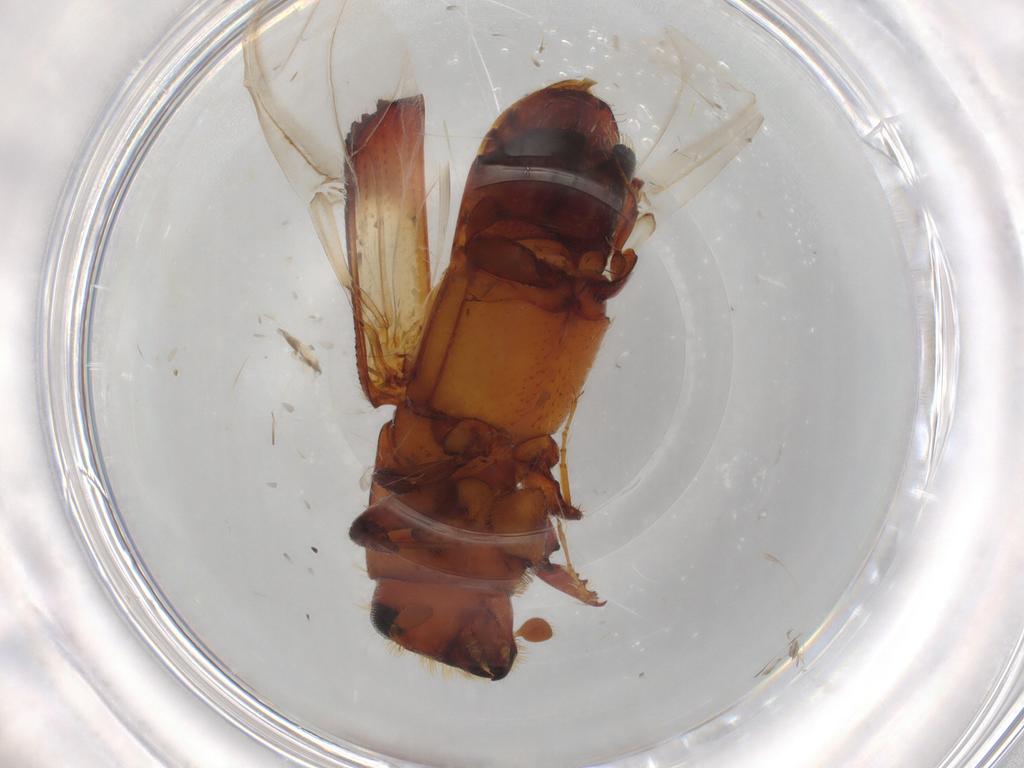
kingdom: Animalia
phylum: Arthropoda
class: Insecta
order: Coleoptera
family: Curculionidae
